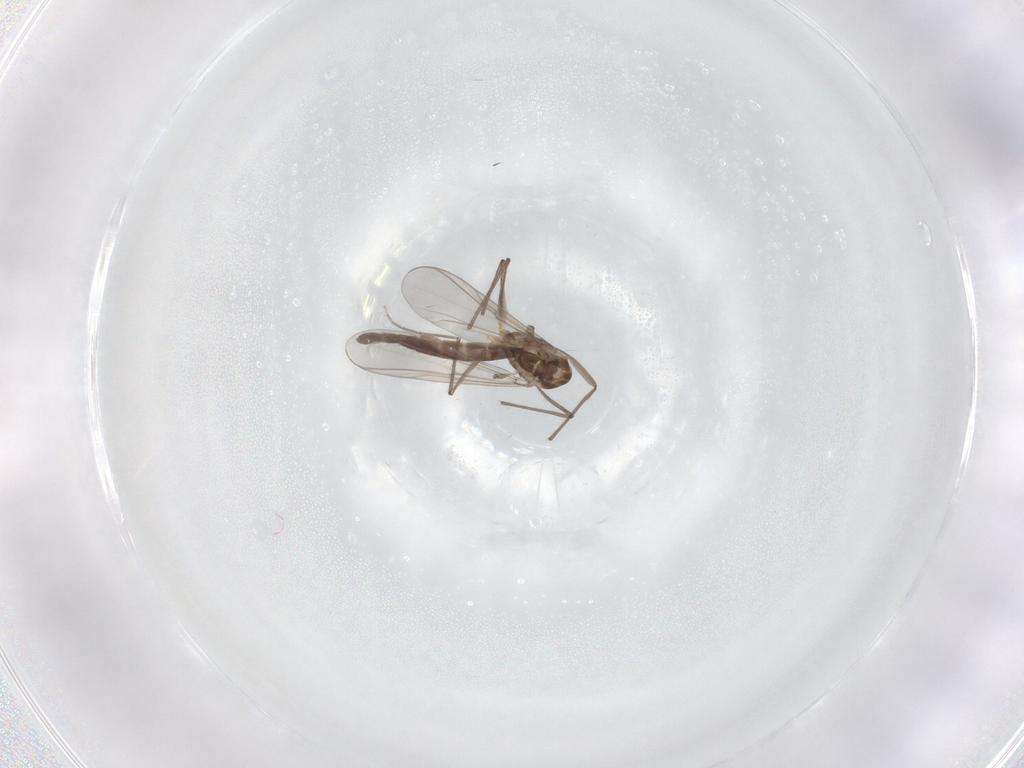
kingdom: Animalia
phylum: Arthropoda
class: Insecta
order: Diptera
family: Chironomidae
